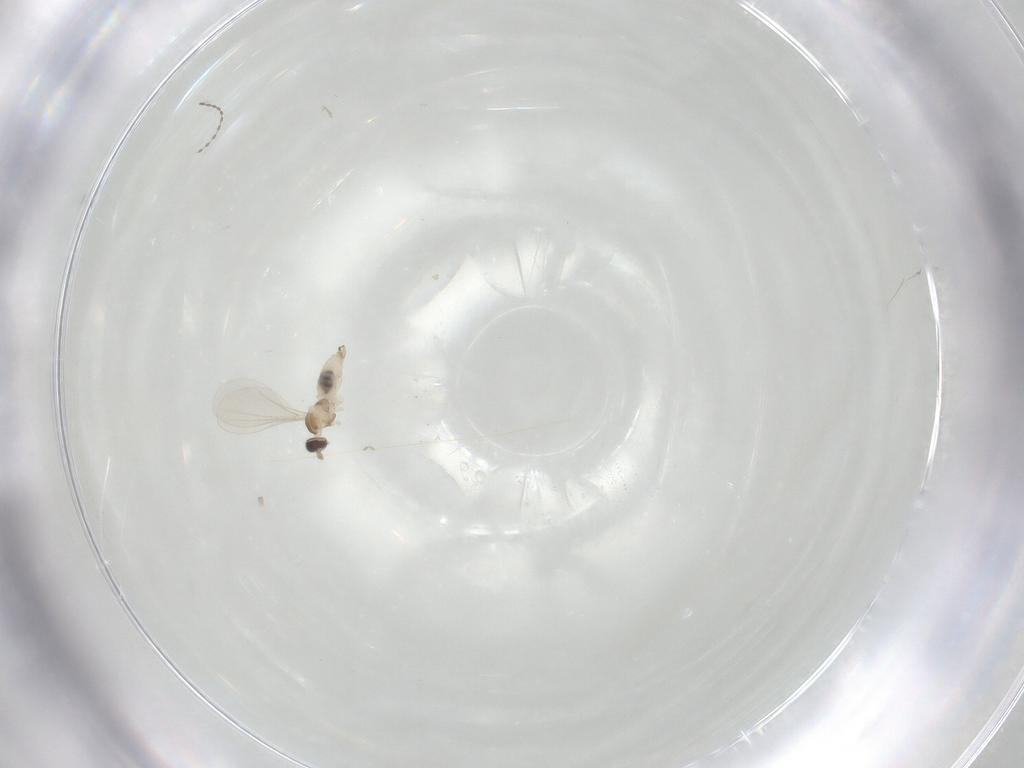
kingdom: Animalia
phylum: Arthropoda
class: Insecta
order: Diptera
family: Cecidomyiidae
